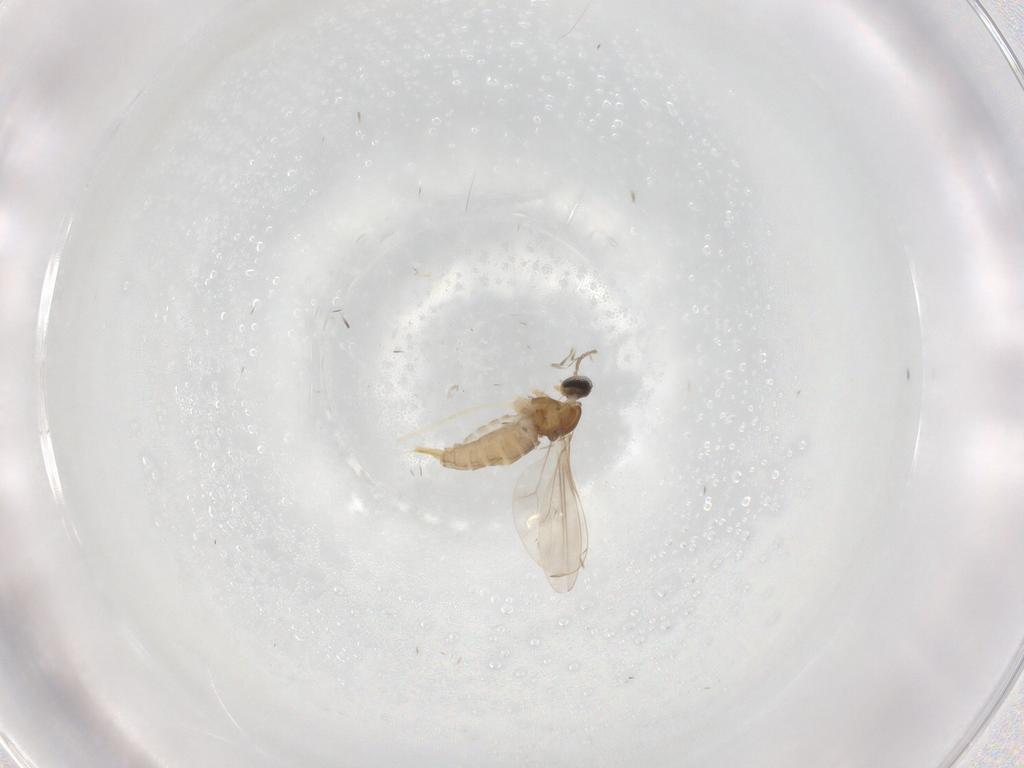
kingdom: Animalia
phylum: Arthropoda
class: Insecta
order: Diptera
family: Cecidomyiidae
